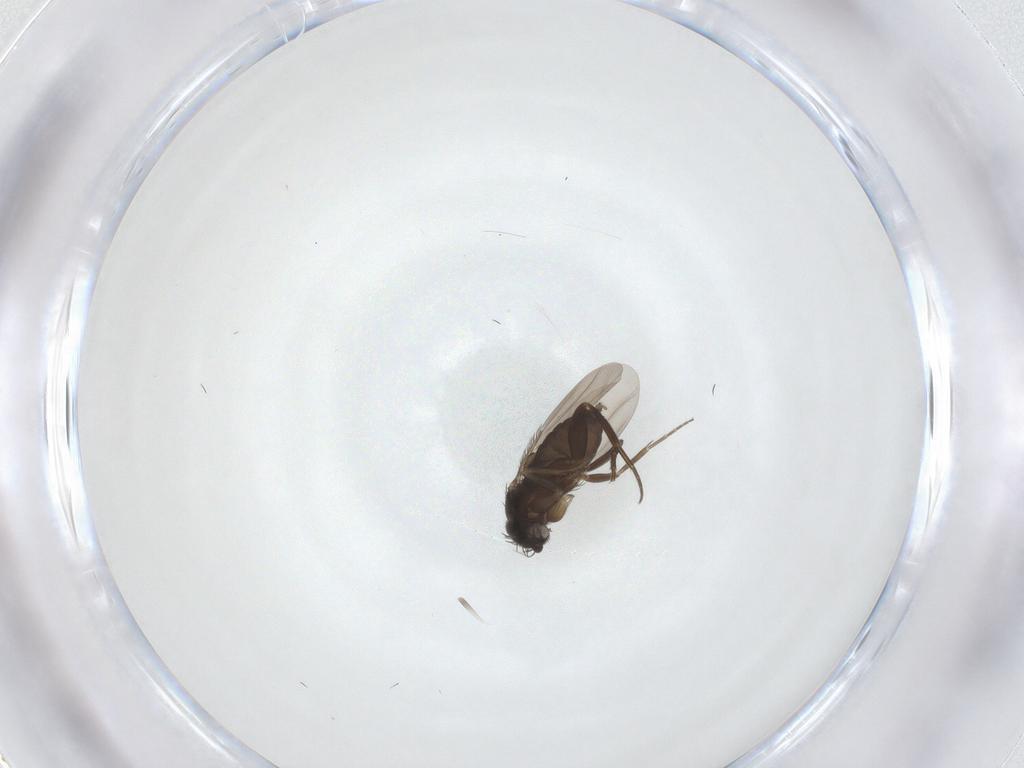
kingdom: Animalia
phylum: Arthropoda
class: Insecta
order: Diptera
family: Phoridae
